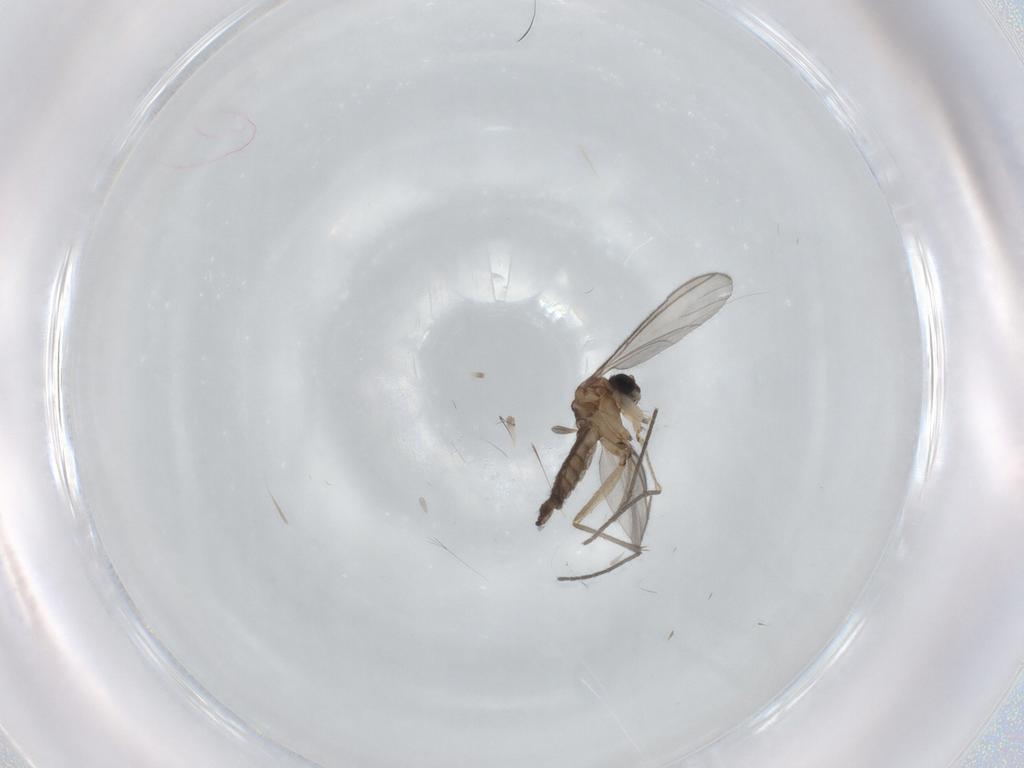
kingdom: Animalia
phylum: Arthropoda
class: Insecta
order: Diptera
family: Sciaridae
